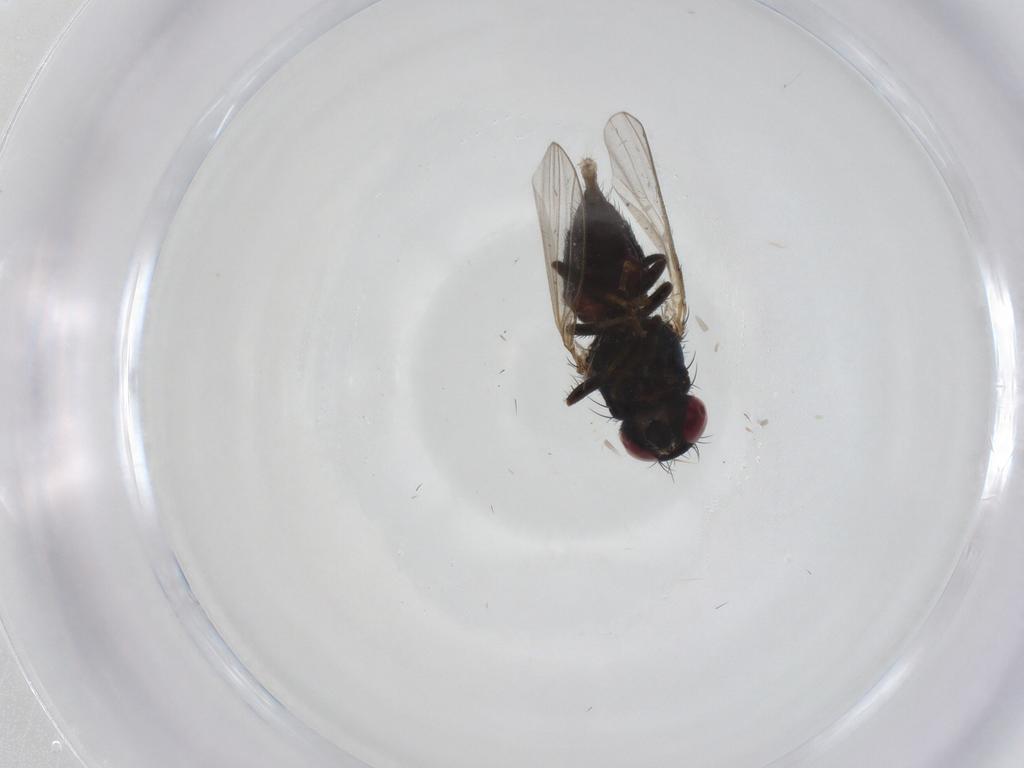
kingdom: Animalia
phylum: Arthropoda
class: Insecta
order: Diptera
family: Carnidae
